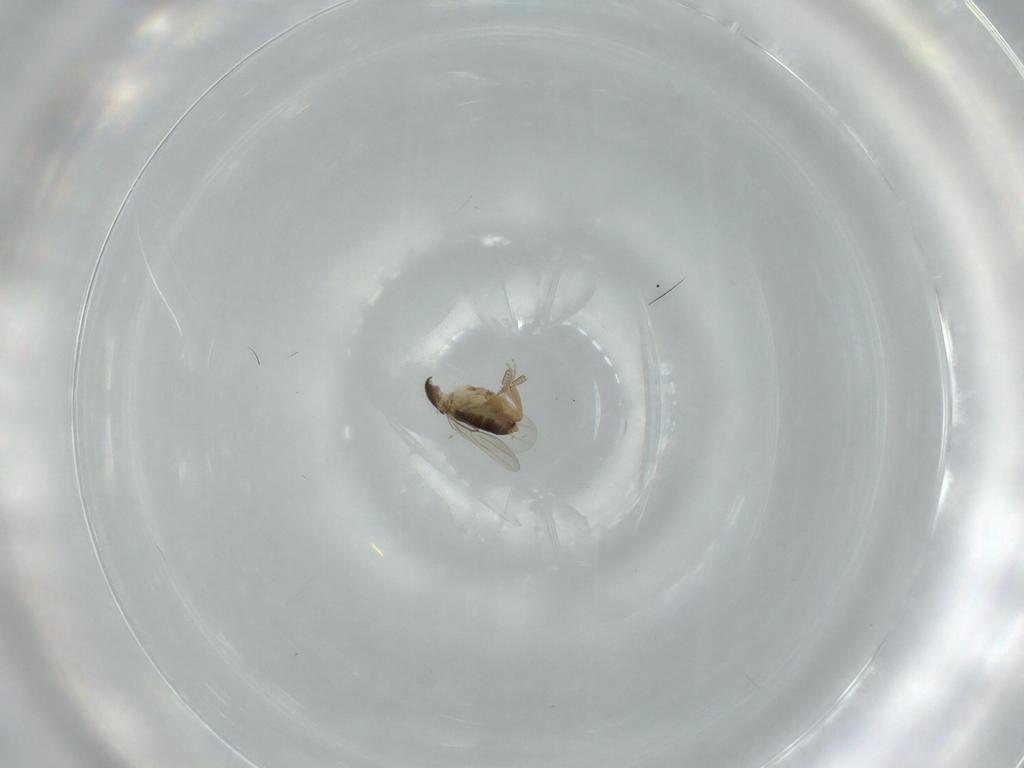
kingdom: Animalia
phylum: Arthropoda
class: Insecta
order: Diptera
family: Phoridae
